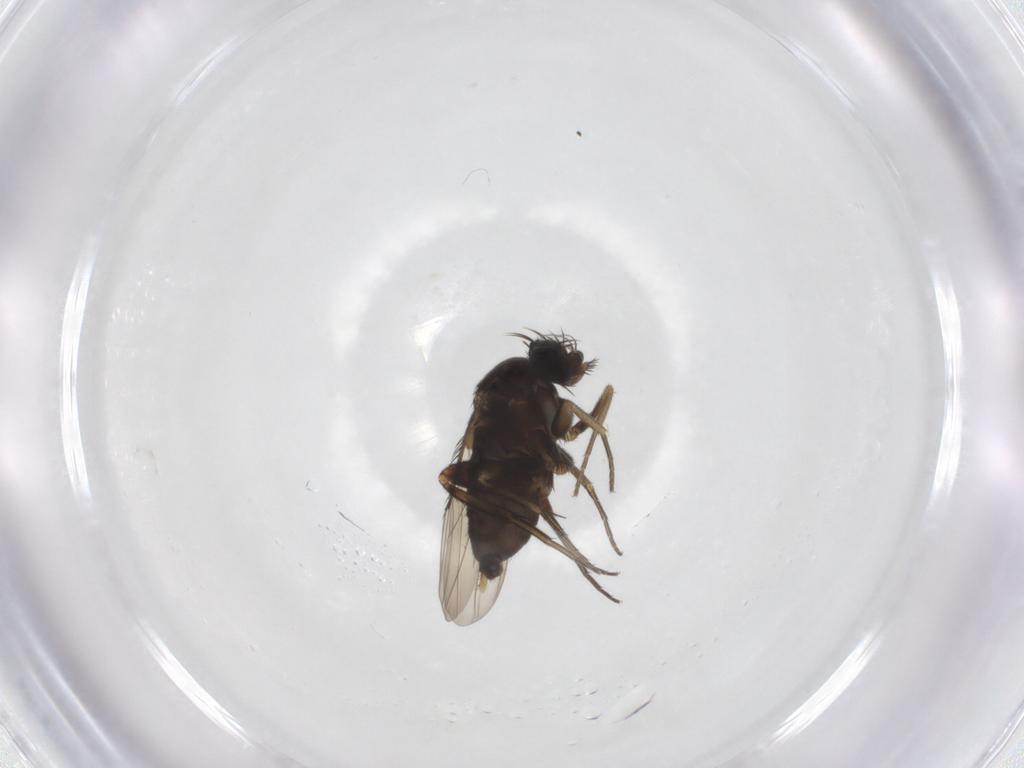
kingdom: Animalia
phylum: Arthropoda
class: Insecta
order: Diptera
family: Phoridae
